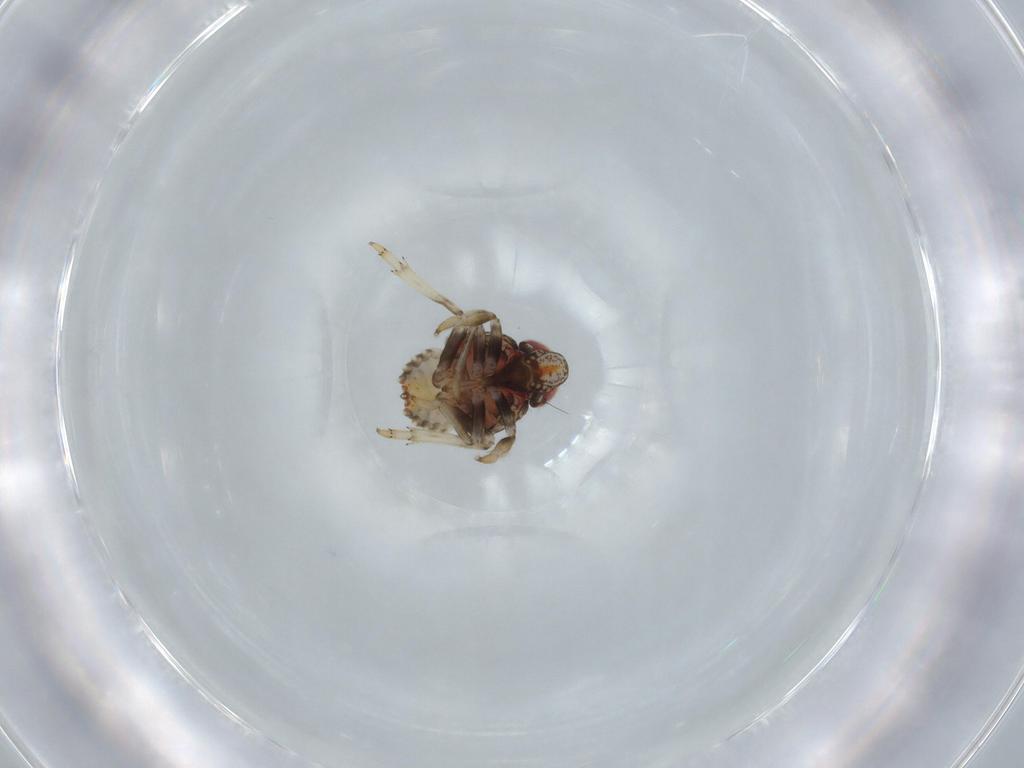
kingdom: Animalia
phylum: Arthropoda
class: Insecta
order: Hemiptera
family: Issidae
